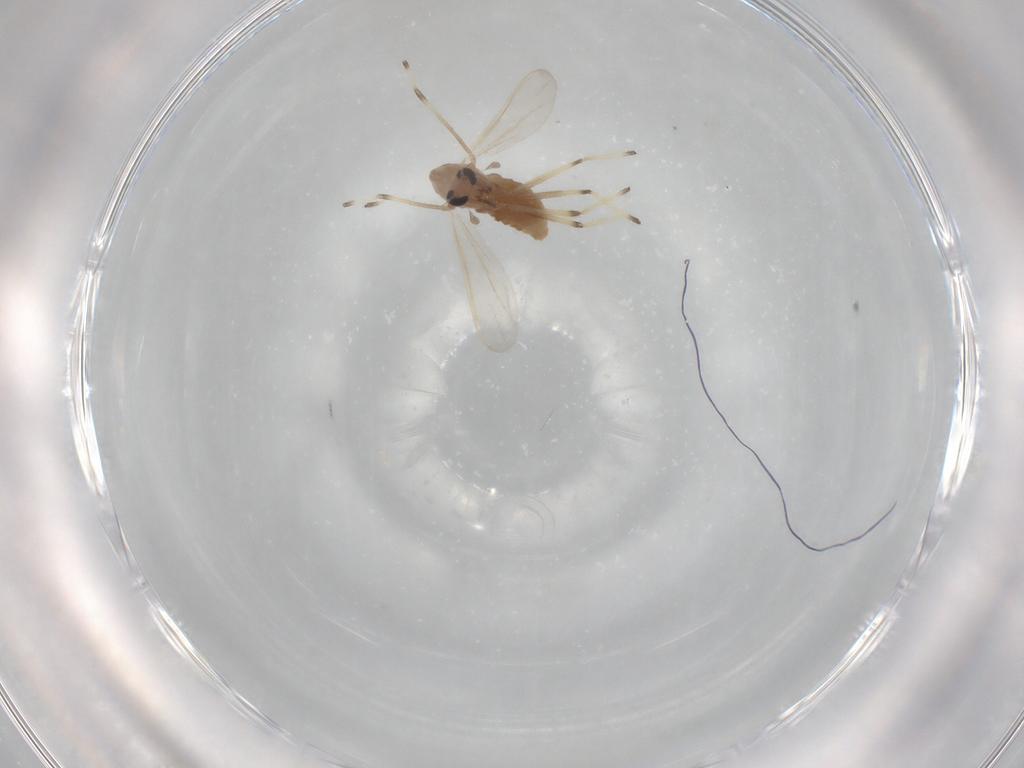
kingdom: Animalia
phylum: Arthropoda
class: Insecta
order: Diptera
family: Chironomidae
